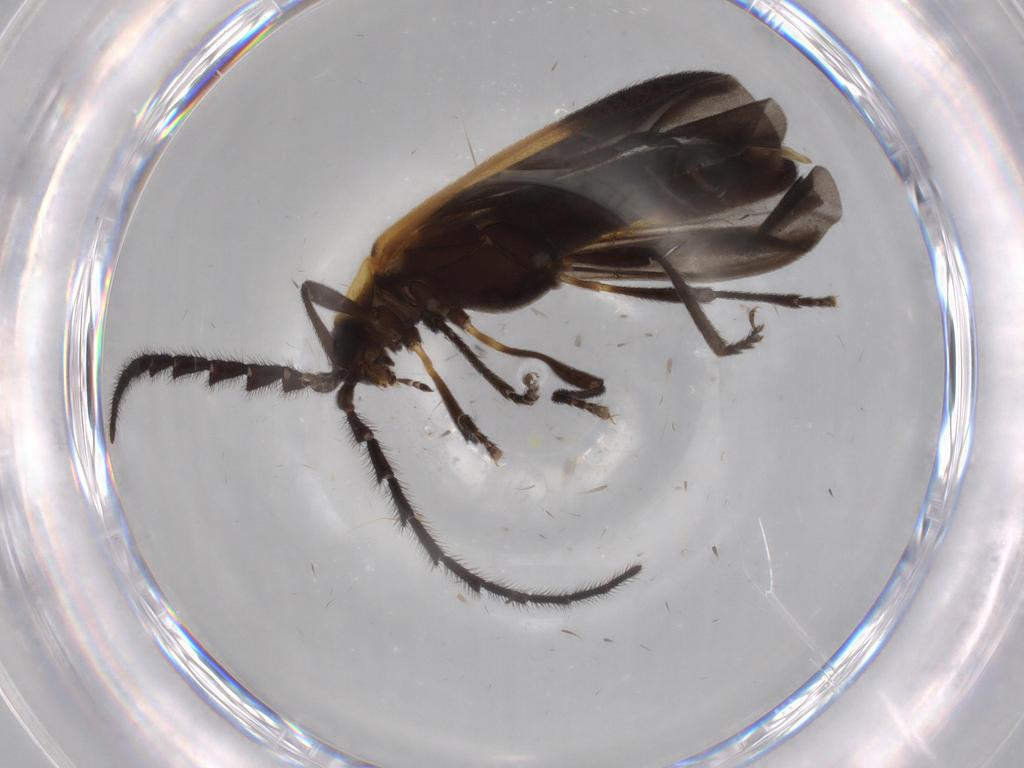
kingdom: Animalia
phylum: Arthropoda
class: Insecta
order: Coleoptera
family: Lycidae
